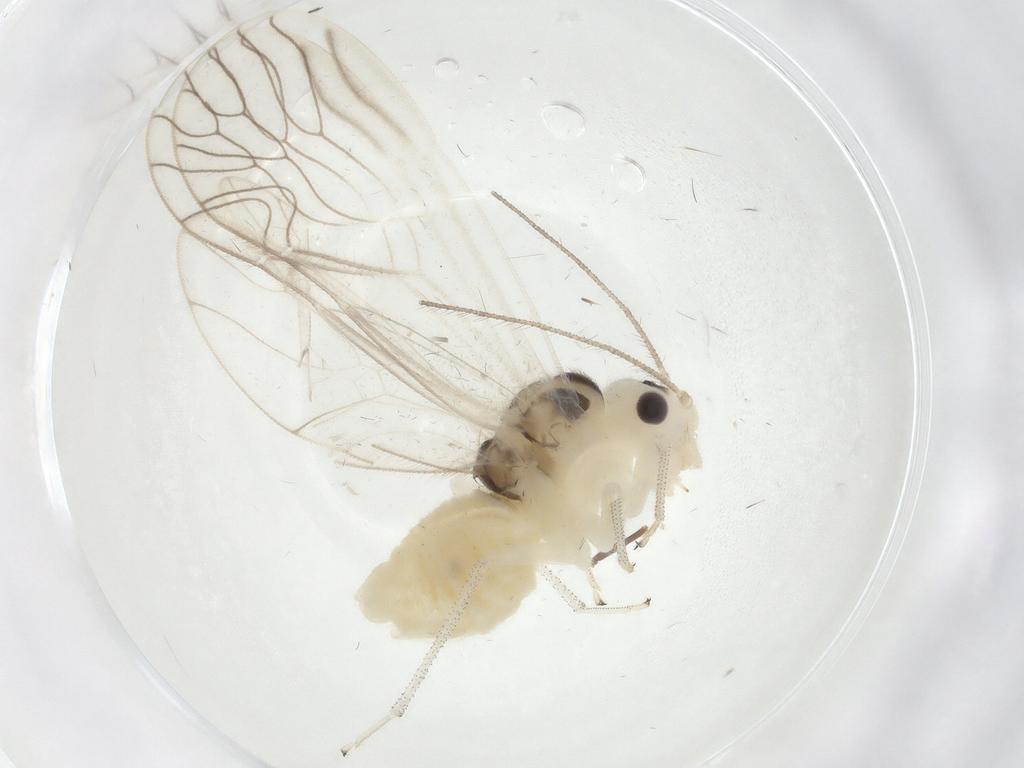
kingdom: Animalia
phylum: Arthropoda
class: Insecta
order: Psocodea
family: Amphipsocidae
